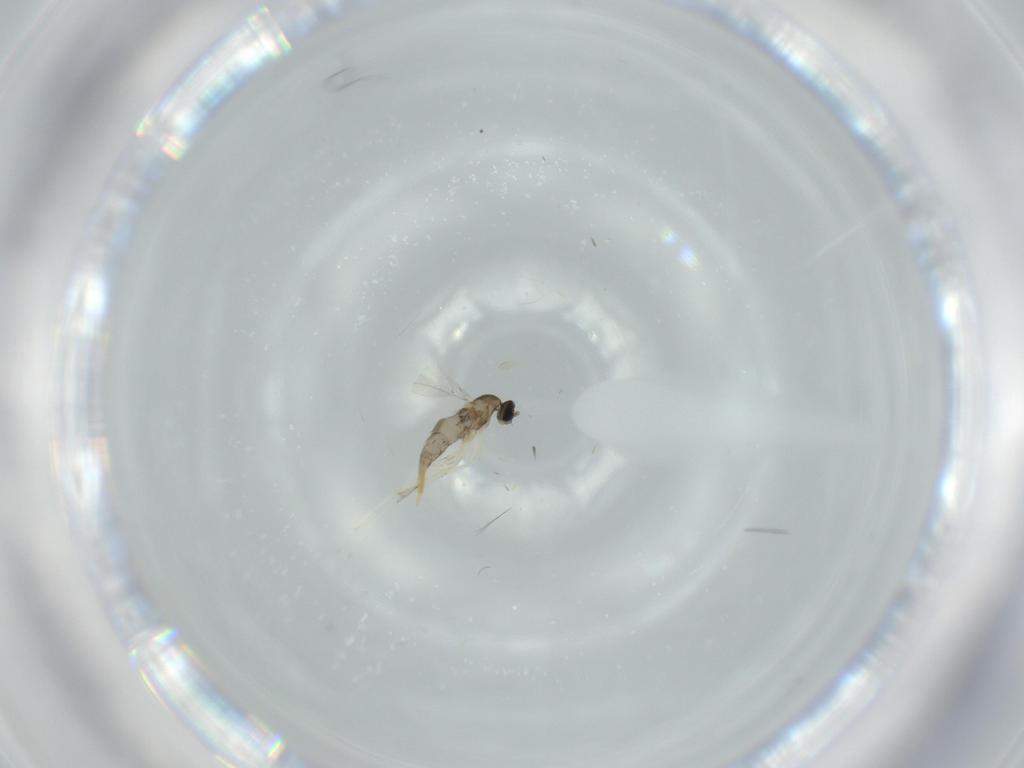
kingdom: Animalia
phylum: Arthropoda
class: Insecta
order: Diptera
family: Cecidomyiidae
